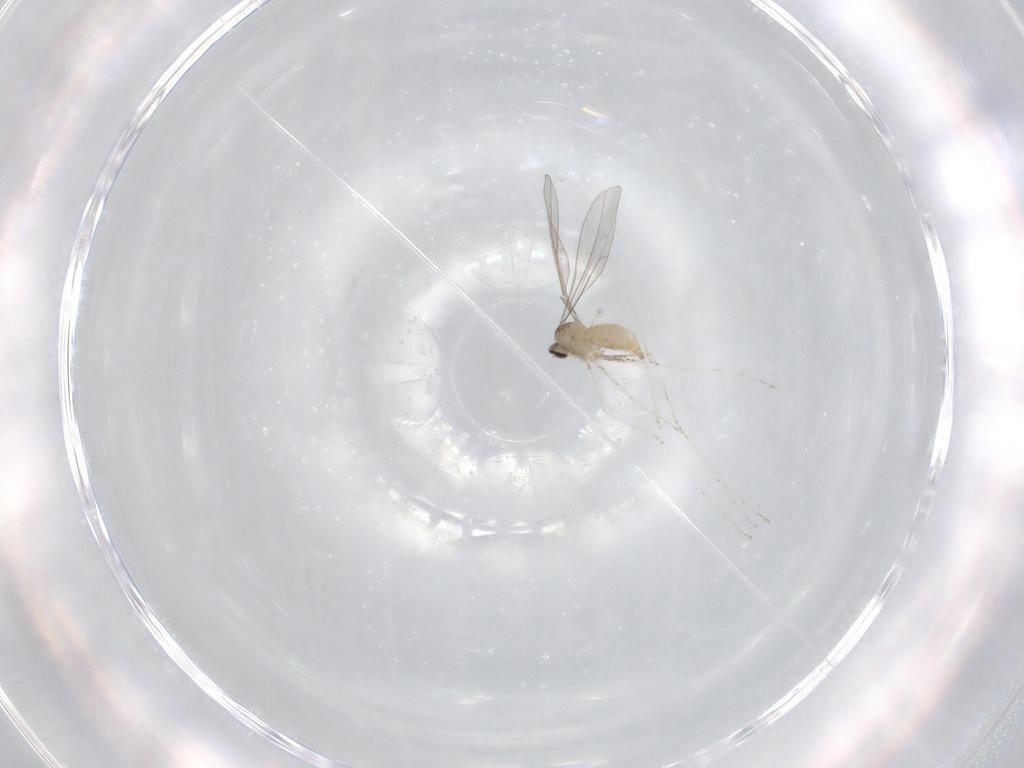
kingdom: Animalia
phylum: Arthropoda
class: Insecta
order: Diptera
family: Cecidomyiidae
